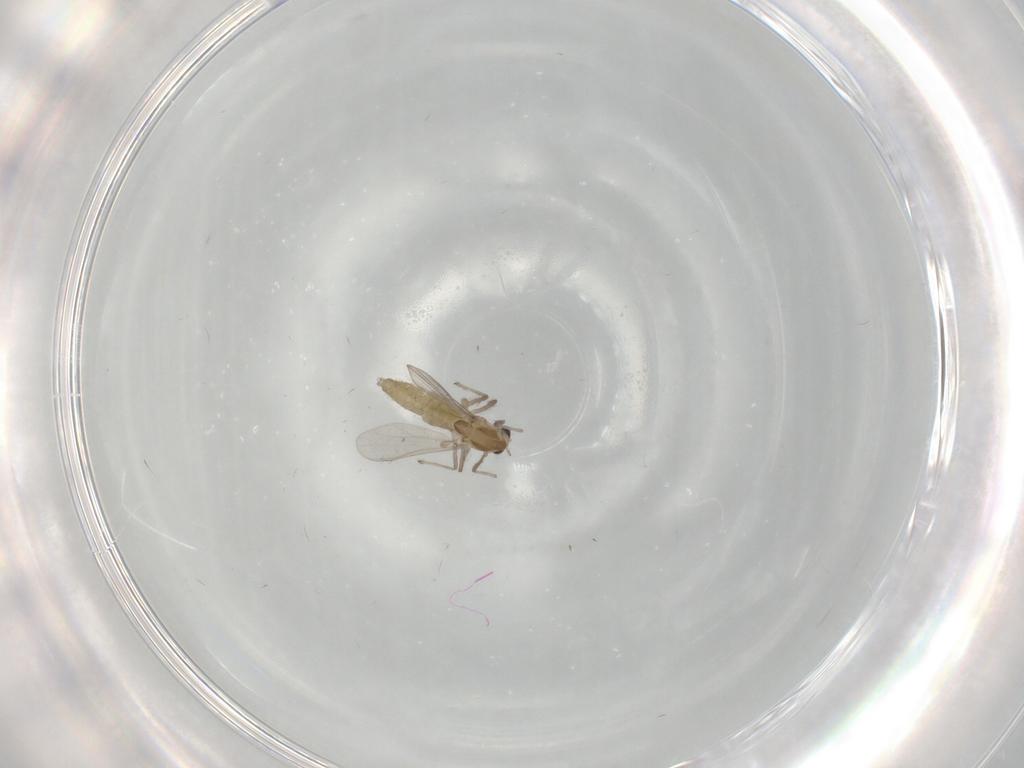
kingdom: Animalia
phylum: Arthropoda
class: Insecta
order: Diptera
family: Chironomidae
